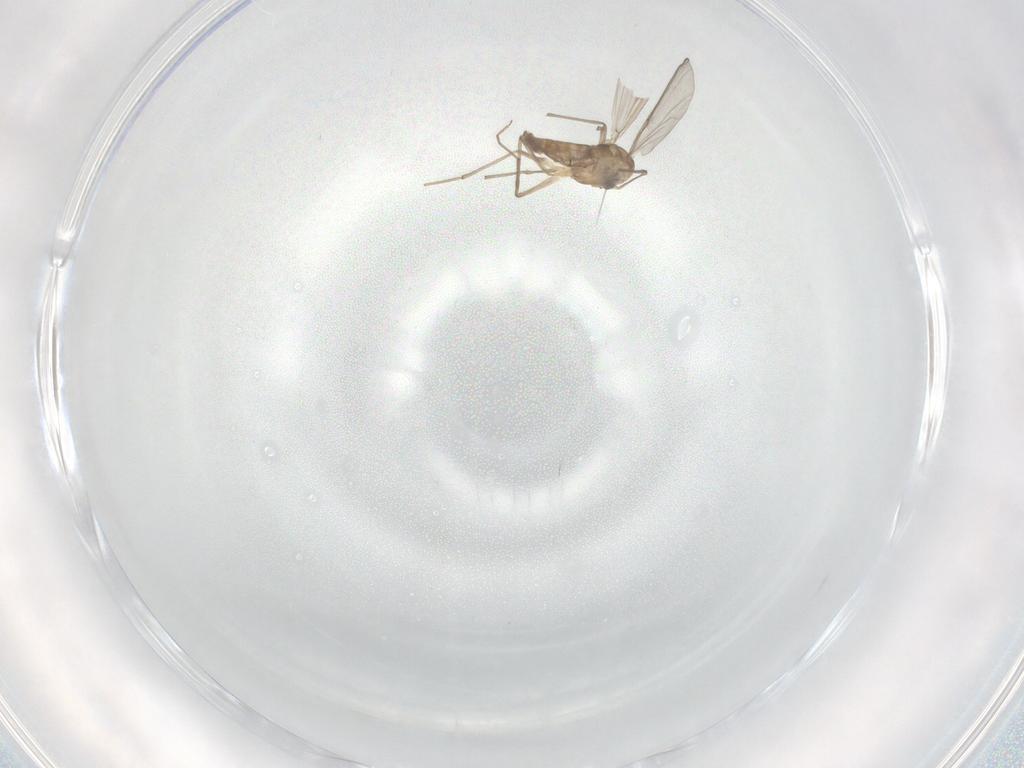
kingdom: Animalia
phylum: Arthropoda
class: Insecta
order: Diptera
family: Chironomidae
